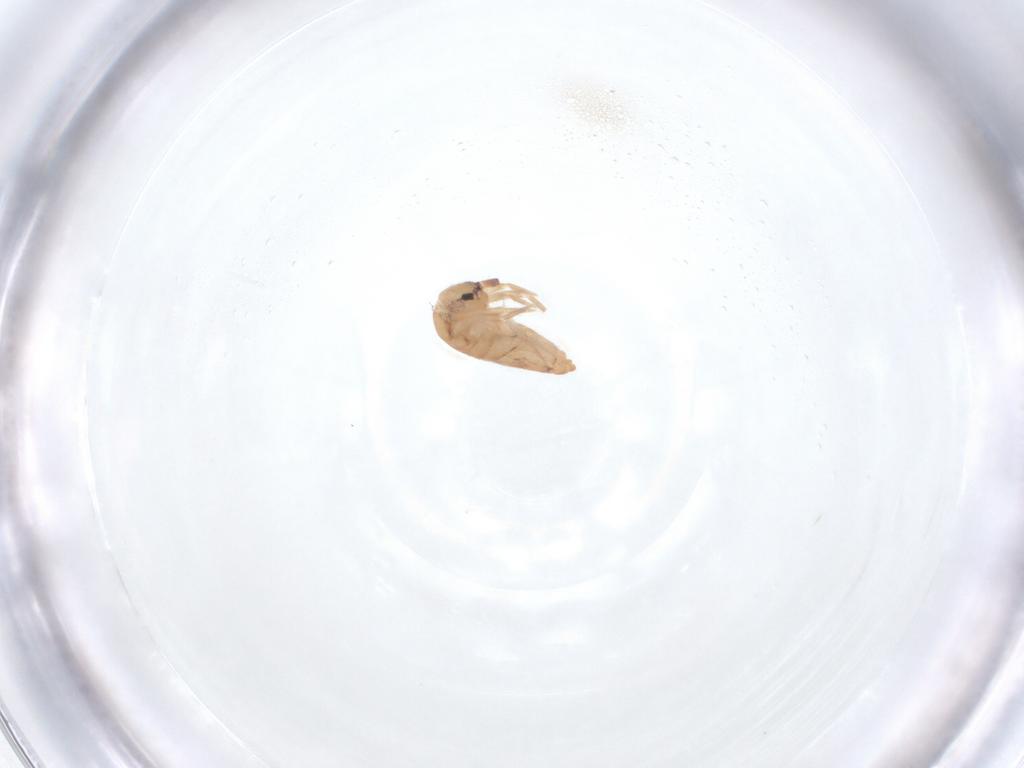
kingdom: Animalia
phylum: Arthropoda
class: Collembola
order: Entomobryomorpha
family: Entomobryidae
